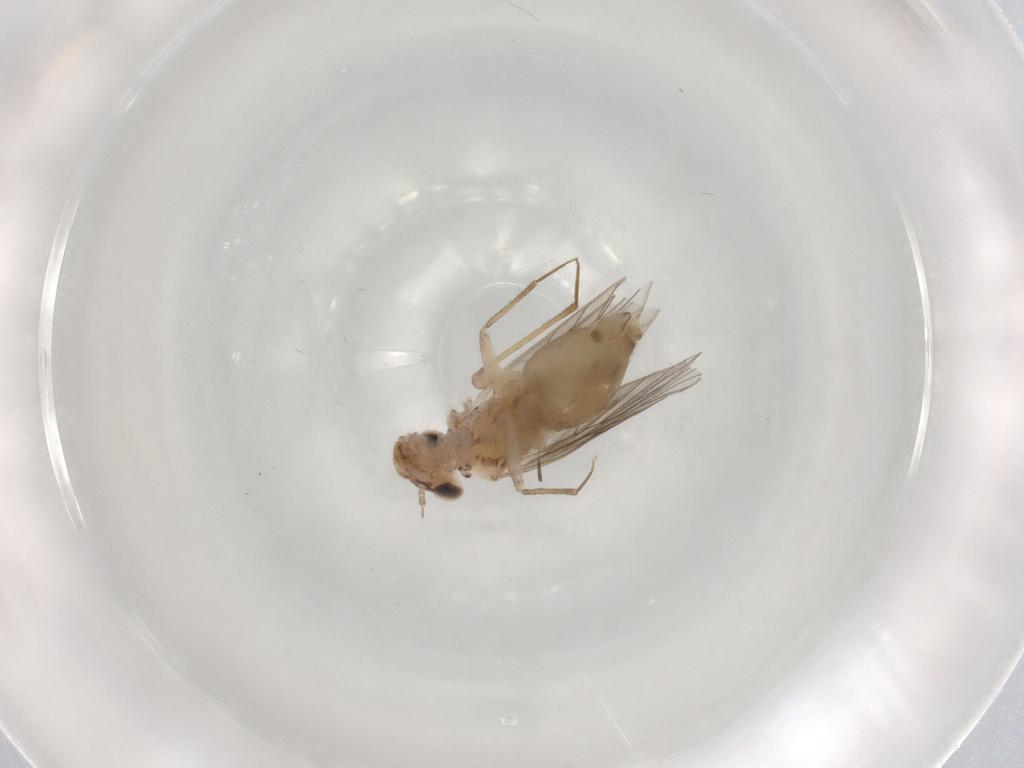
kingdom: Animalia
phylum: Arthropoda
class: Insecta
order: Psocodea
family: Lepidopsocidae
